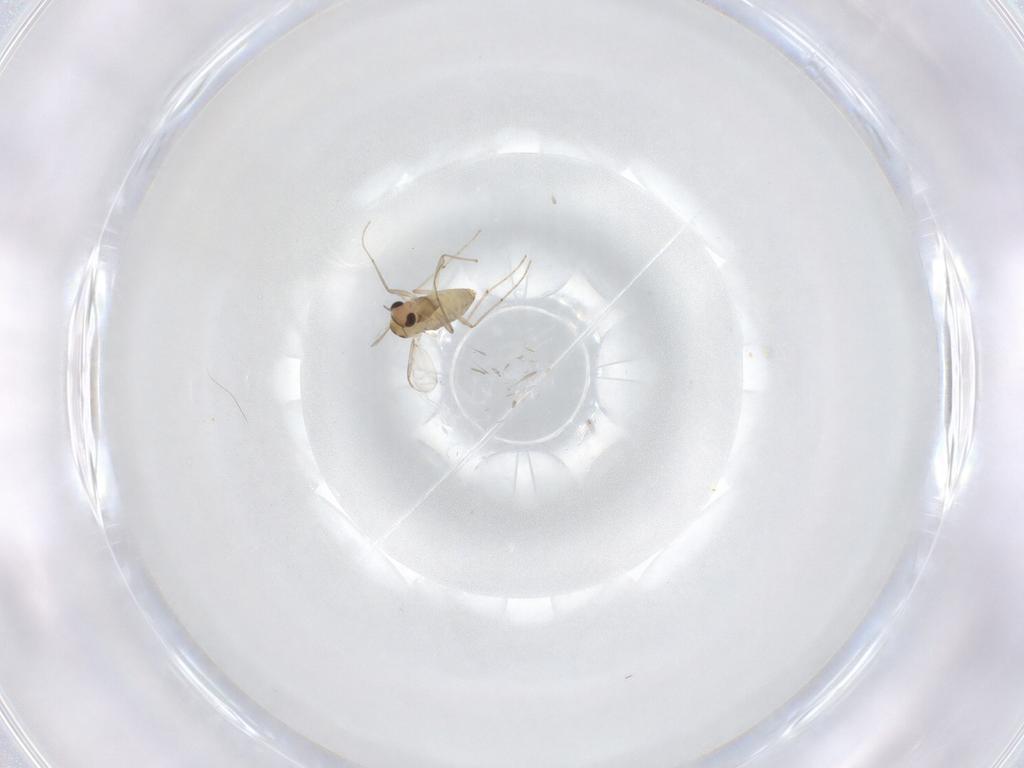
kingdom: Animalia
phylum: Arthropoda
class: Insecta
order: Diptera
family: Chironomidae
